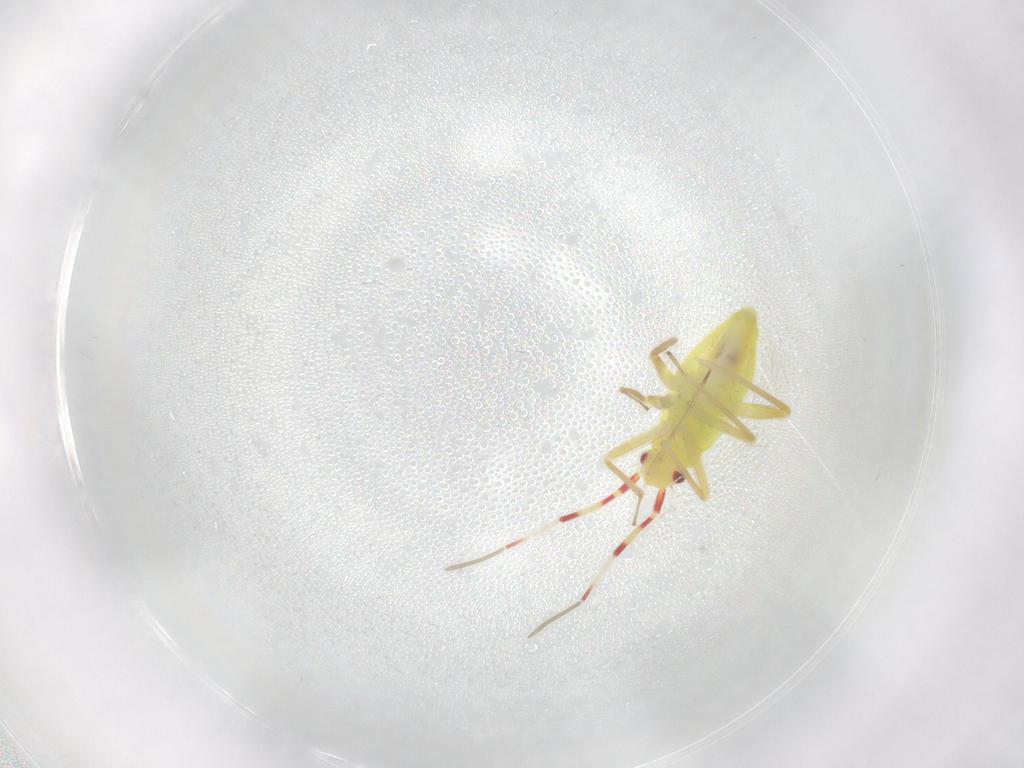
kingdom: Animalia
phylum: Arthropoda
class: Insecta
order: Hemiptera
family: Miridae
